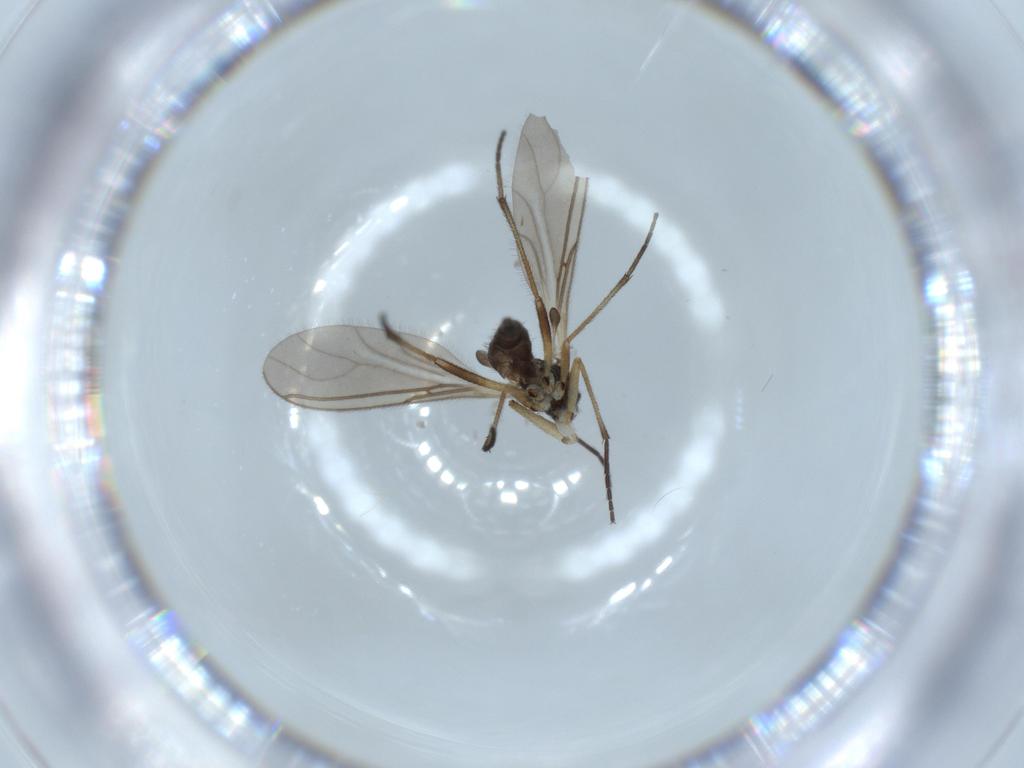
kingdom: Animalia
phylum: Arthropoda
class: Insecta
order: Diptera
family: Sciaridae
